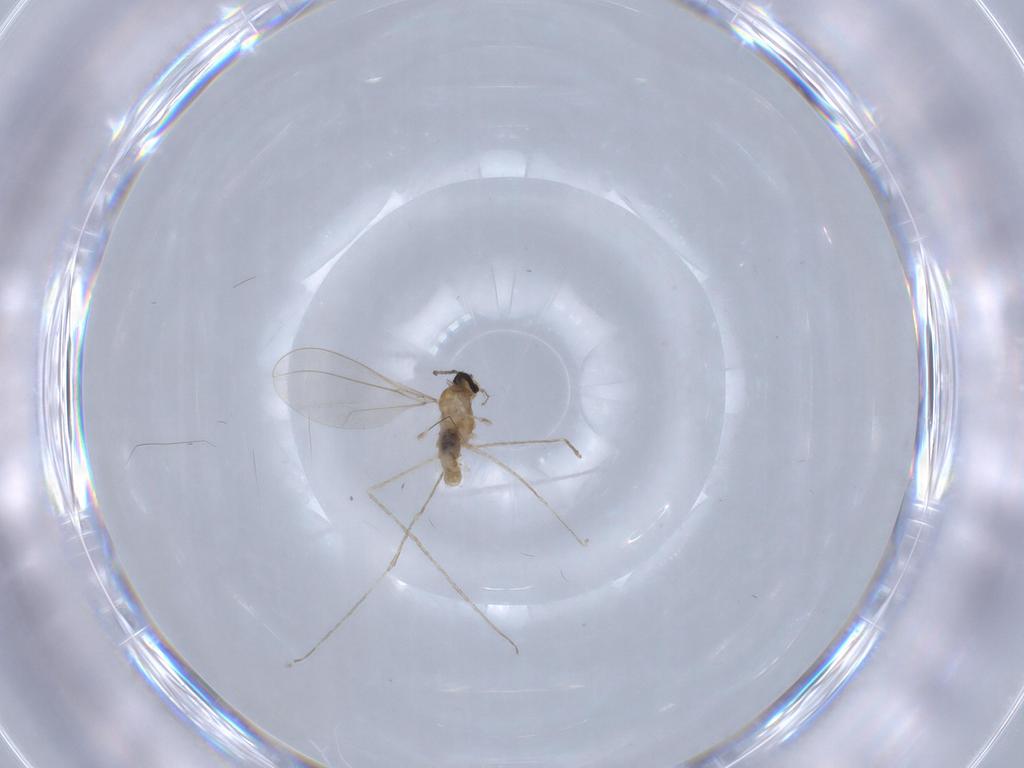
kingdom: Animalia
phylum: Arthropoda
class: Insecta
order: Diptera
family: Cecidomyiidae
